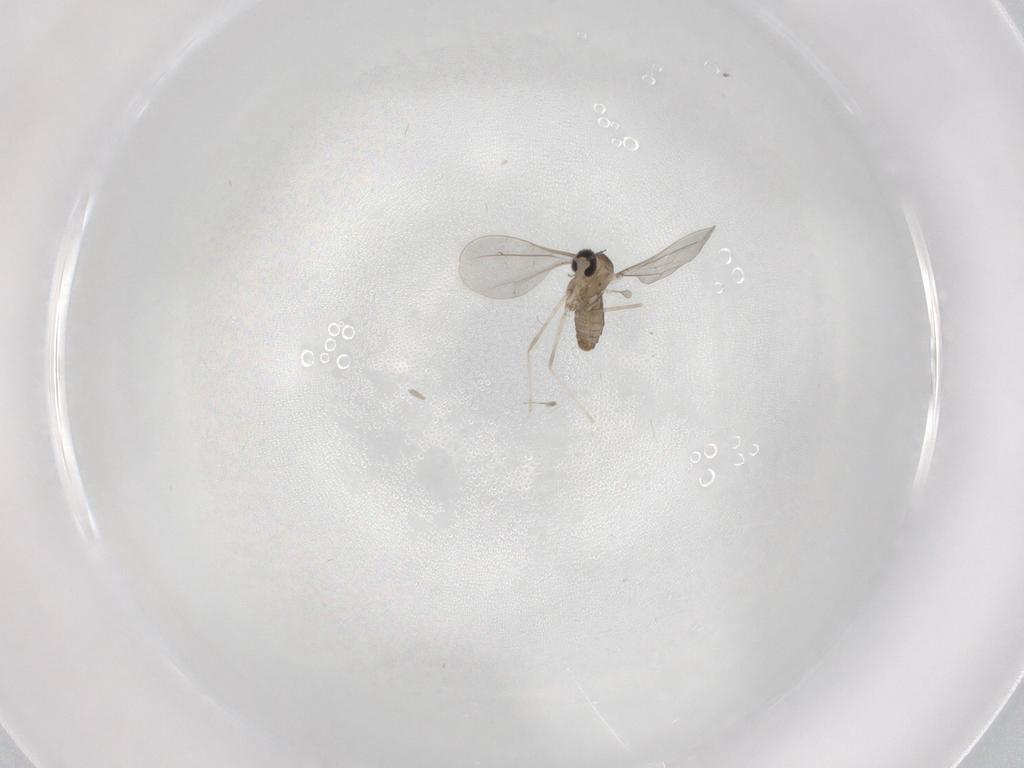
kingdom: Animalia
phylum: Arthropoda
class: Insecta
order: Diptera
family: Cecidomyiidae
